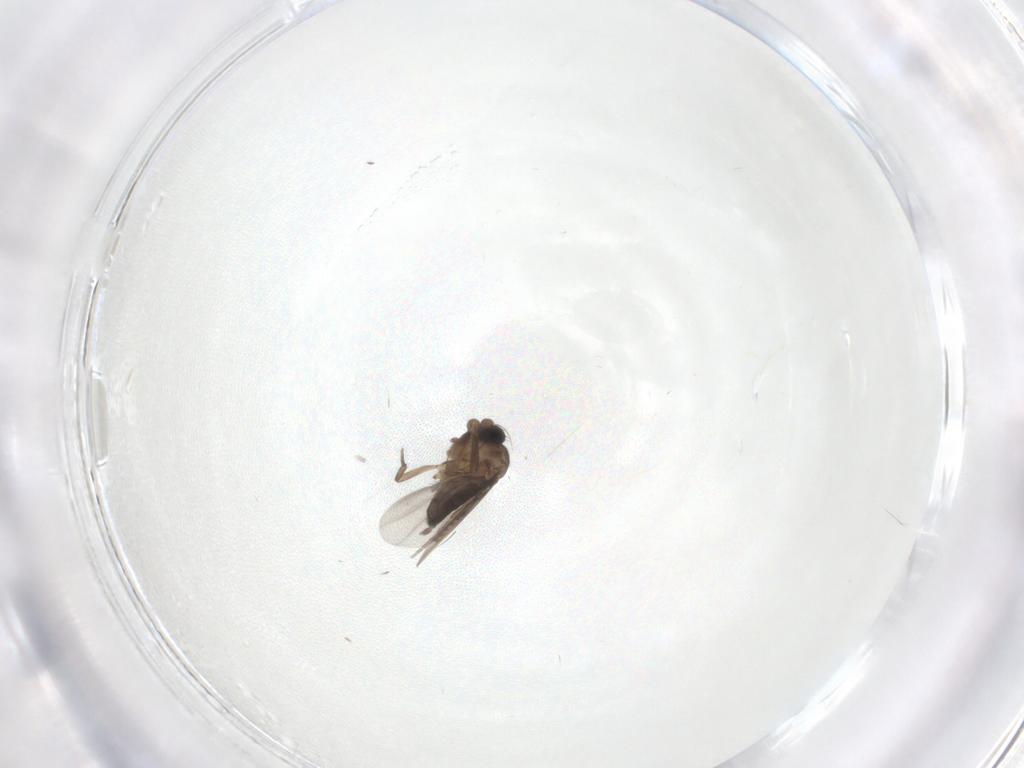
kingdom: Animalia
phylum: Arthropoda
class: Insecta
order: Diptera
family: Phoridae
